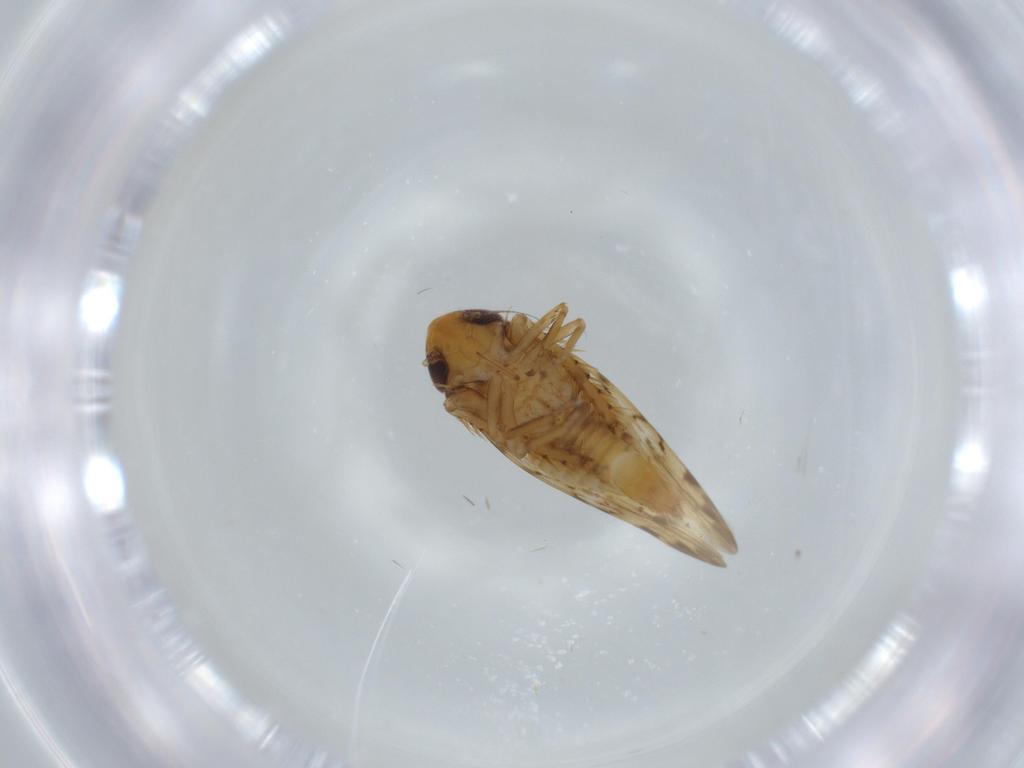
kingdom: Animalia
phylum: Arthropoda
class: Insecta
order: Hemiptera
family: Cicadellidae
